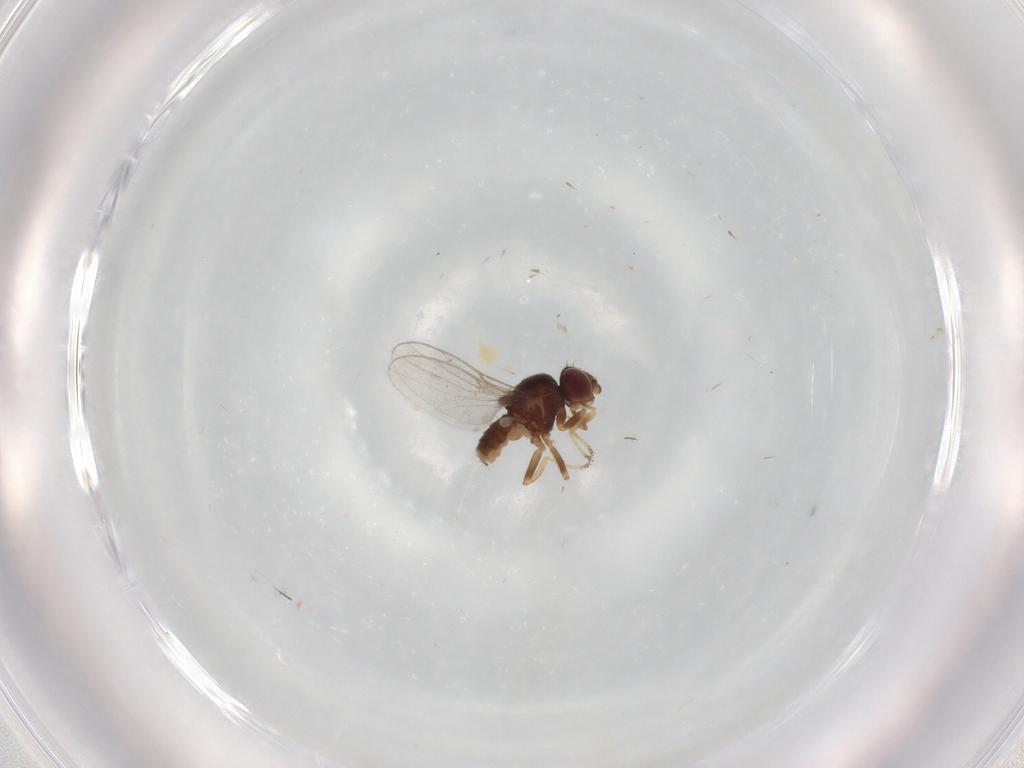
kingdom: Animalia
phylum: Arthropoda
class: Insecta
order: Diptera
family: Chloropidae
